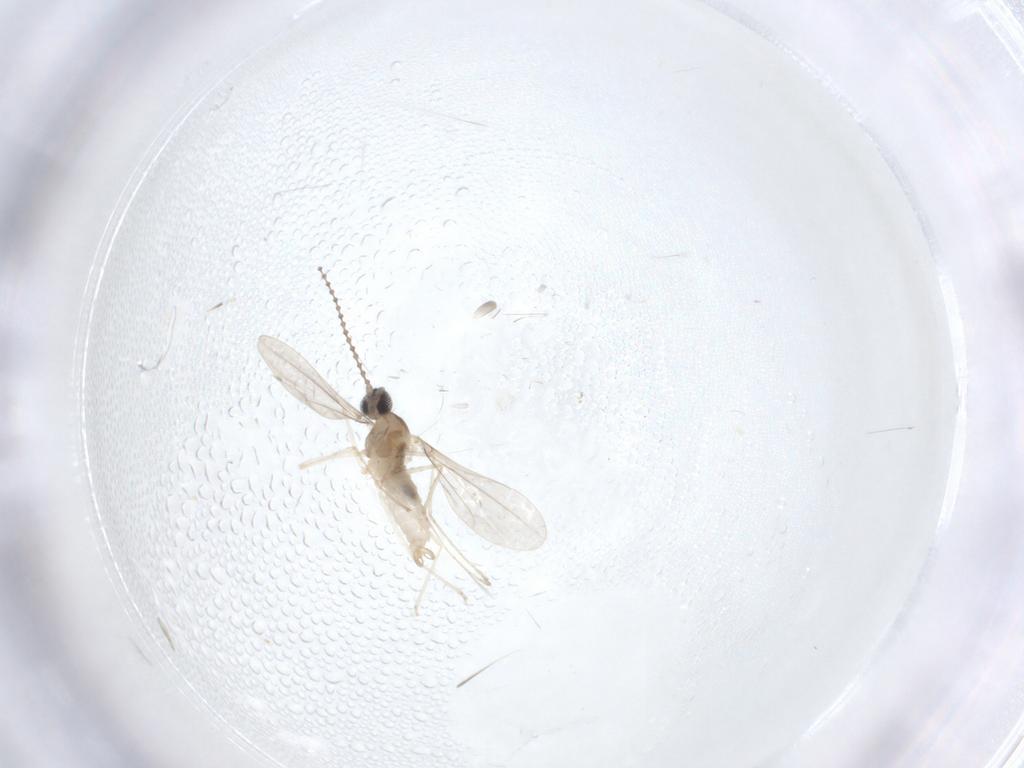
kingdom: Animalia
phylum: Arthropoda
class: Insecta
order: Diptera
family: Cecidomyiidae
